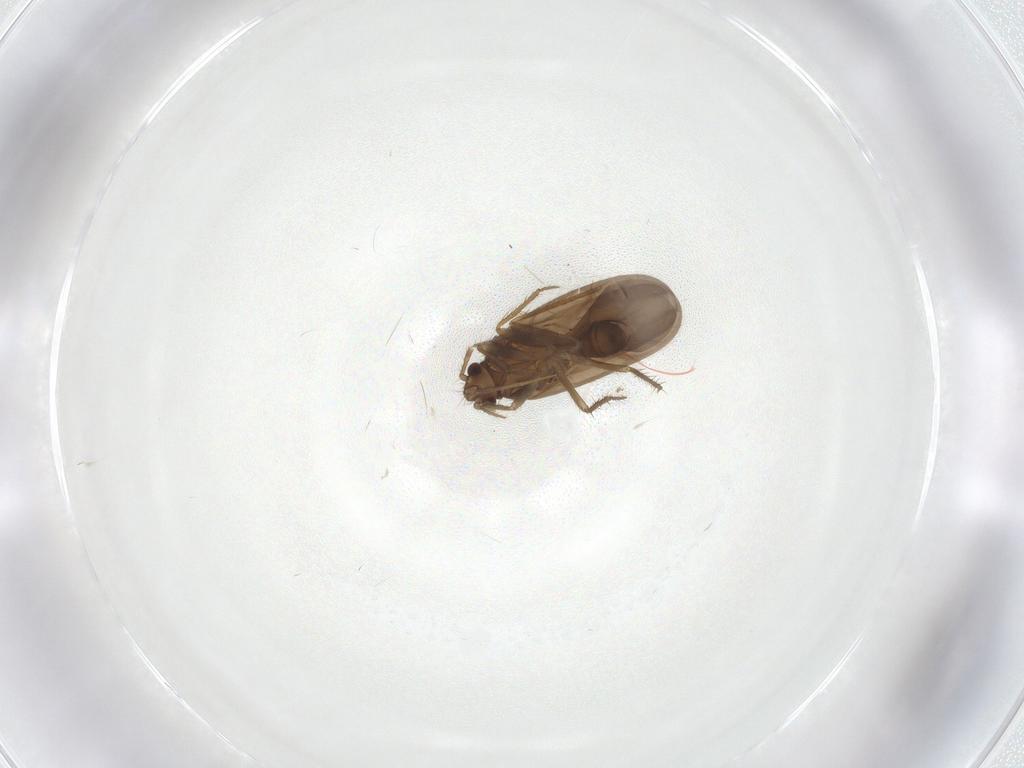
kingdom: Animalia
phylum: Arthropoda
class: Insecta
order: Hemiptera
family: Ceratocombidae
